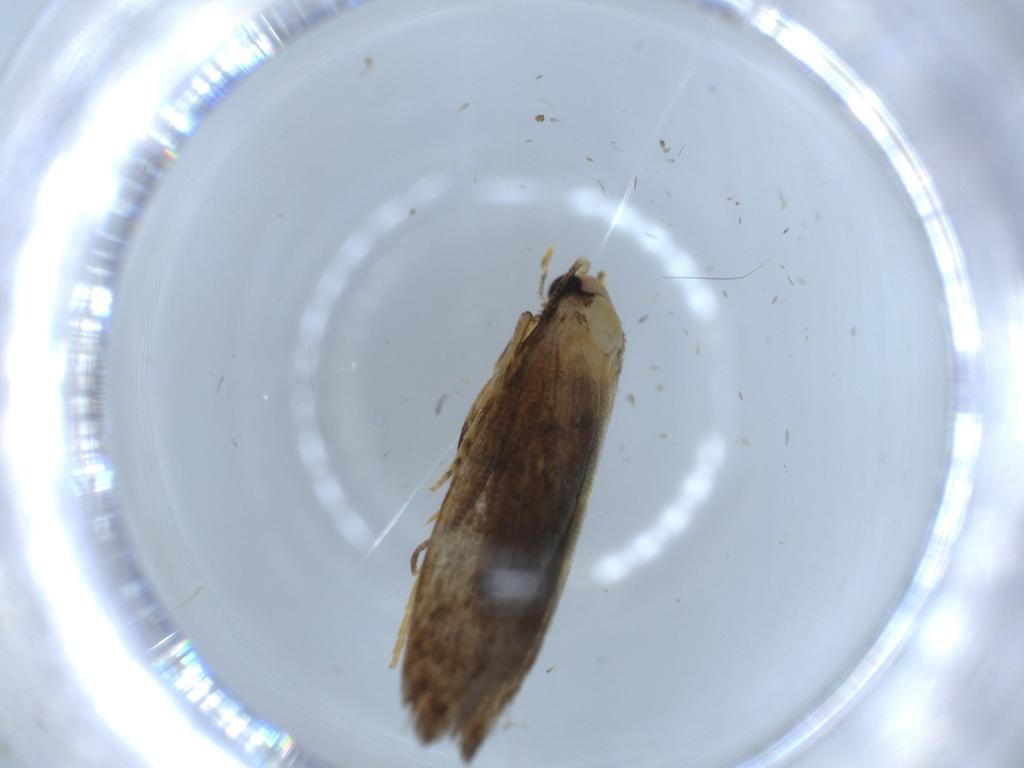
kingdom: Animalia
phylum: Arthropoda
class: Insecta
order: Lepidoptera
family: Tineidae
